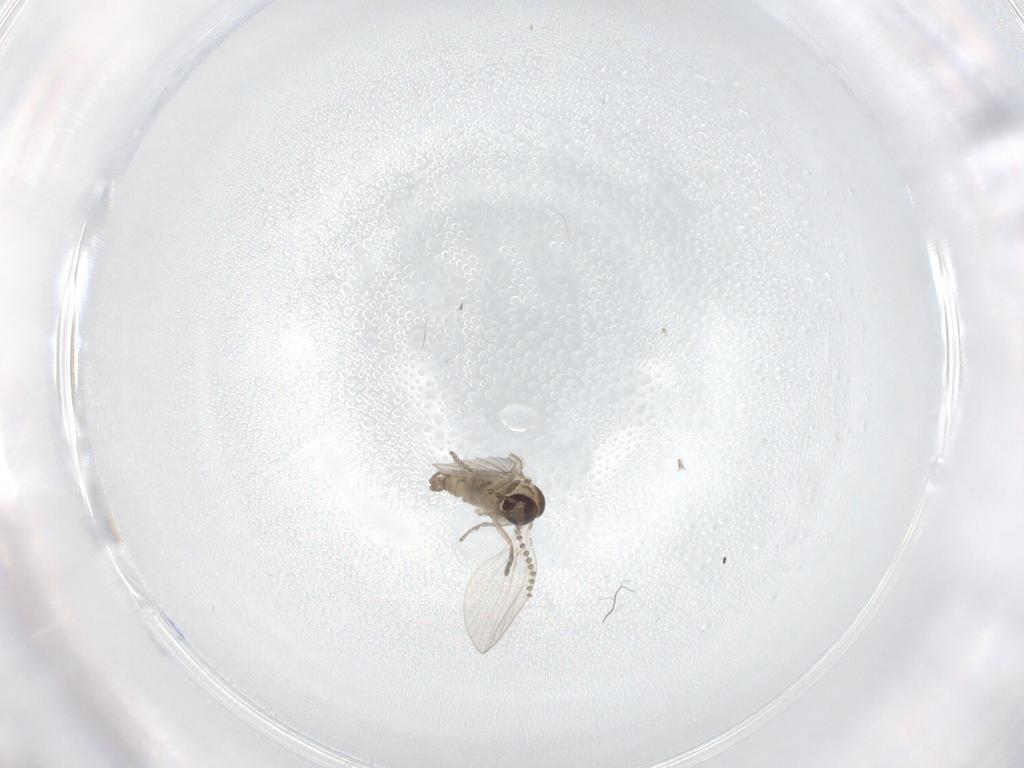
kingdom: Animalia
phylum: Arthropoda
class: Insecta
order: Diptera
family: Psychodidae
